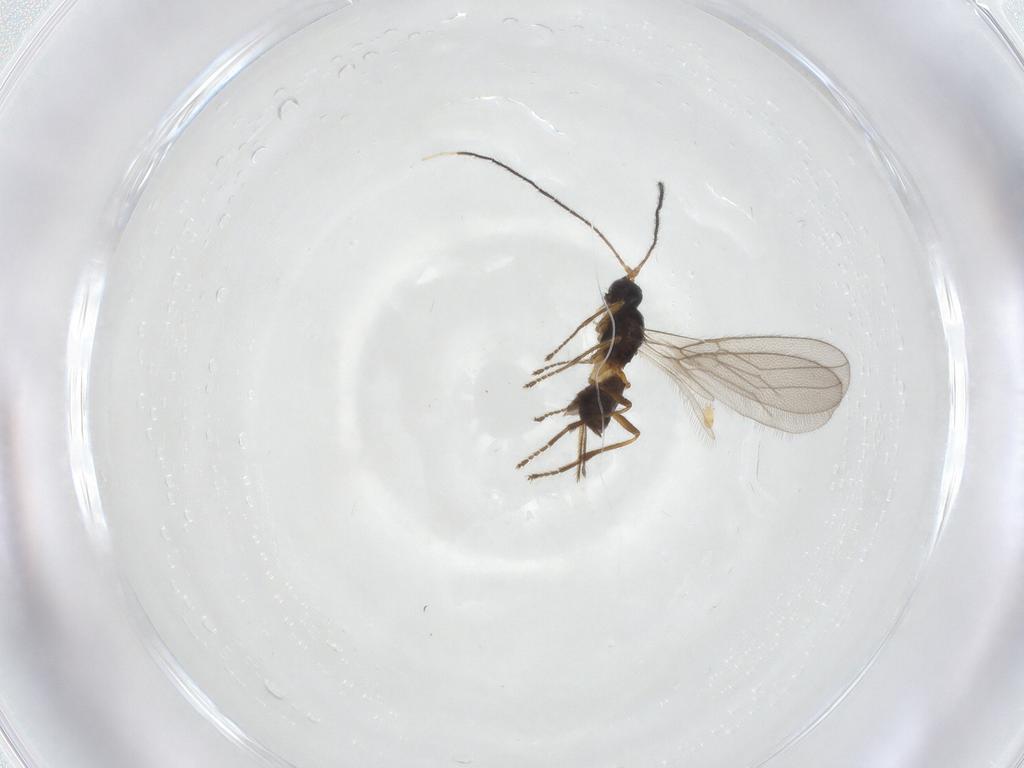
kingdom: Animalia
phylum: Arthropoda
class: Insecta
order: Hymenoptera
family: Braconidae
